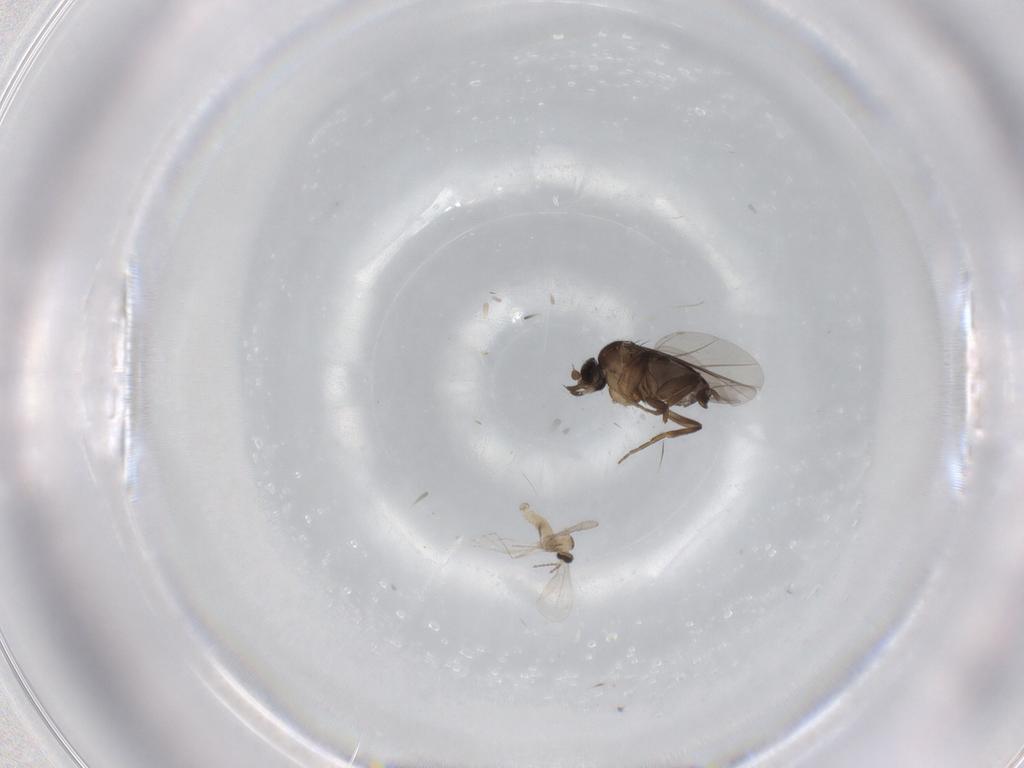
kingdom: Animalia
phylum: Arthropoda
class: Insecta
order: Diptera
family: Phoridae
